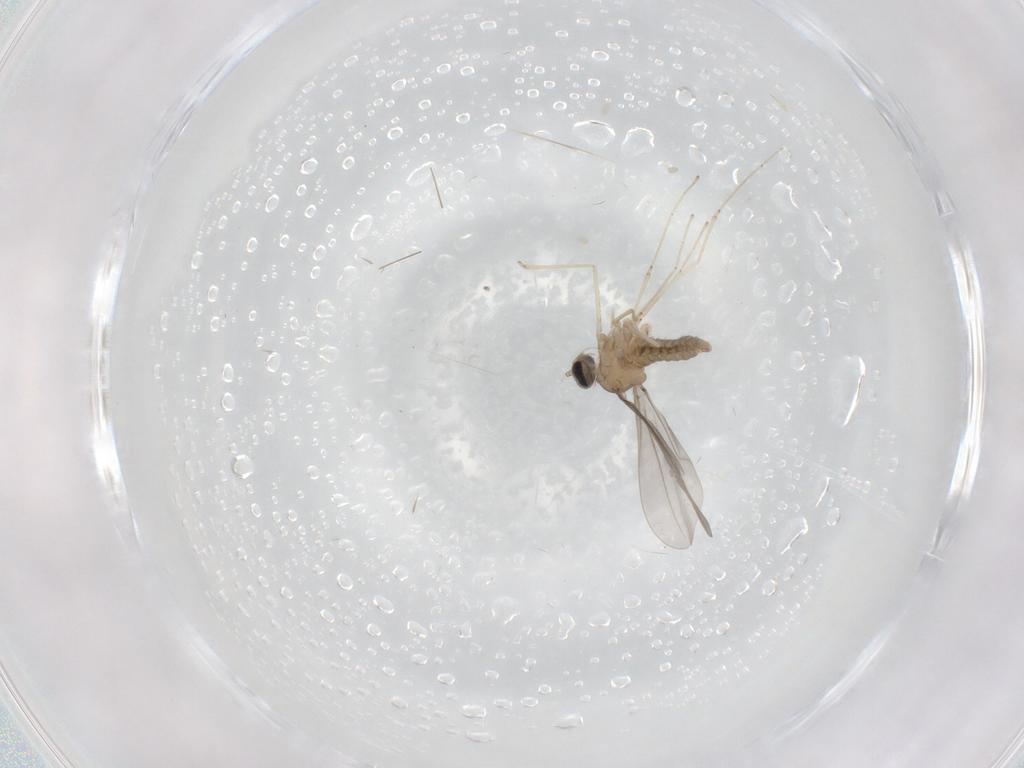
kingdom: Animalia
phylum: Arthropoda
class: Insecta
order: Diptera
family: Cecidomyiidae
